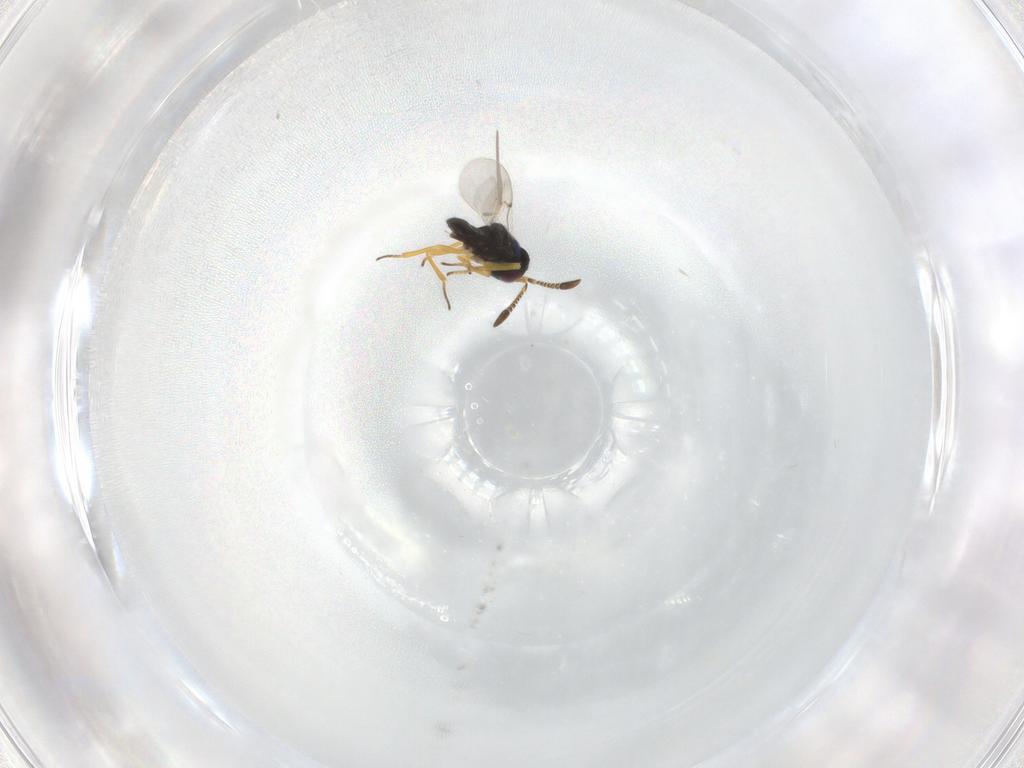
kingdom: Animalia
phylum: Arthropoda
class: Insecta
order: Hymenoptera
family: Encyrtidae
